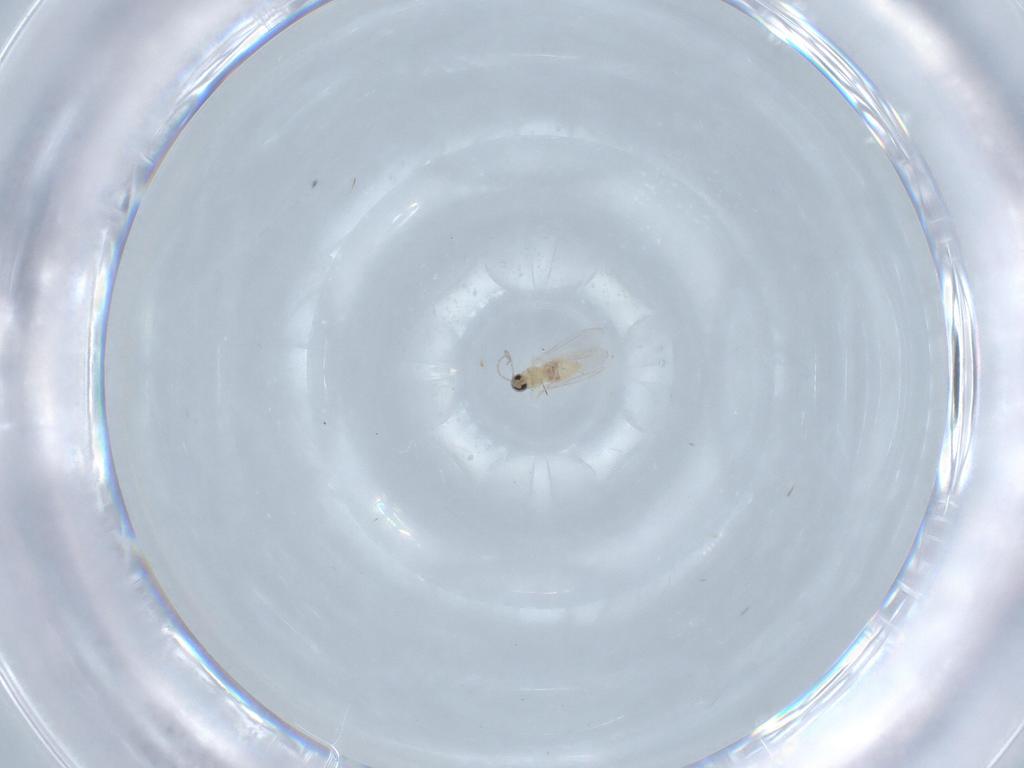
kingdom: Animalia
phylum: Arthropoda
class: Insecta
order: Diptera
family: Cecidomyiidae
